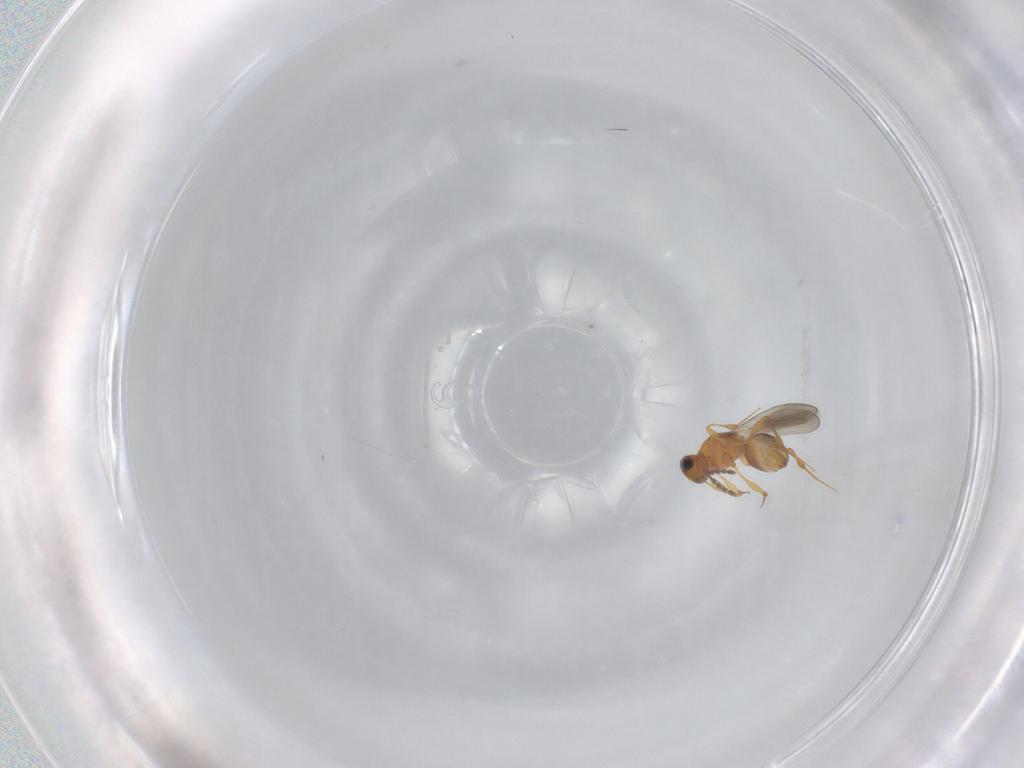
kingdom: Animalia
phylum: Arthropoda
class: Insecta
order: Hymenoptera
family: Platygastridae
